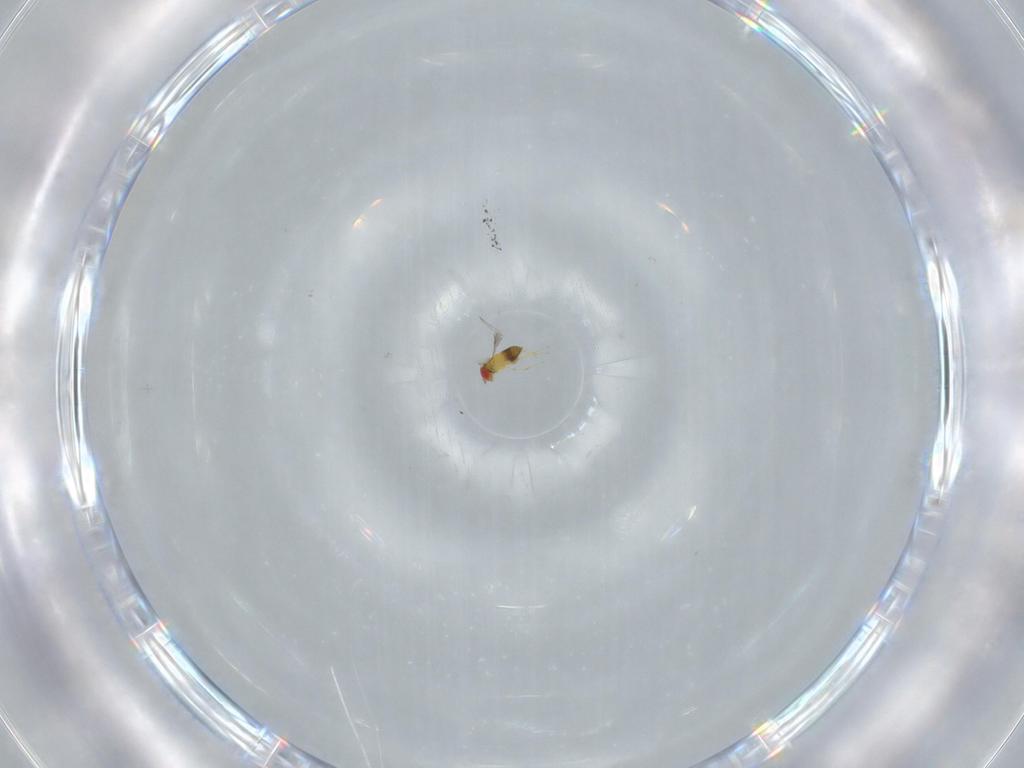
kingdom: Animalia
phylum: Arthropoda
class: Insecta
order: Hymenoptera
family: Trichogrammatidae
